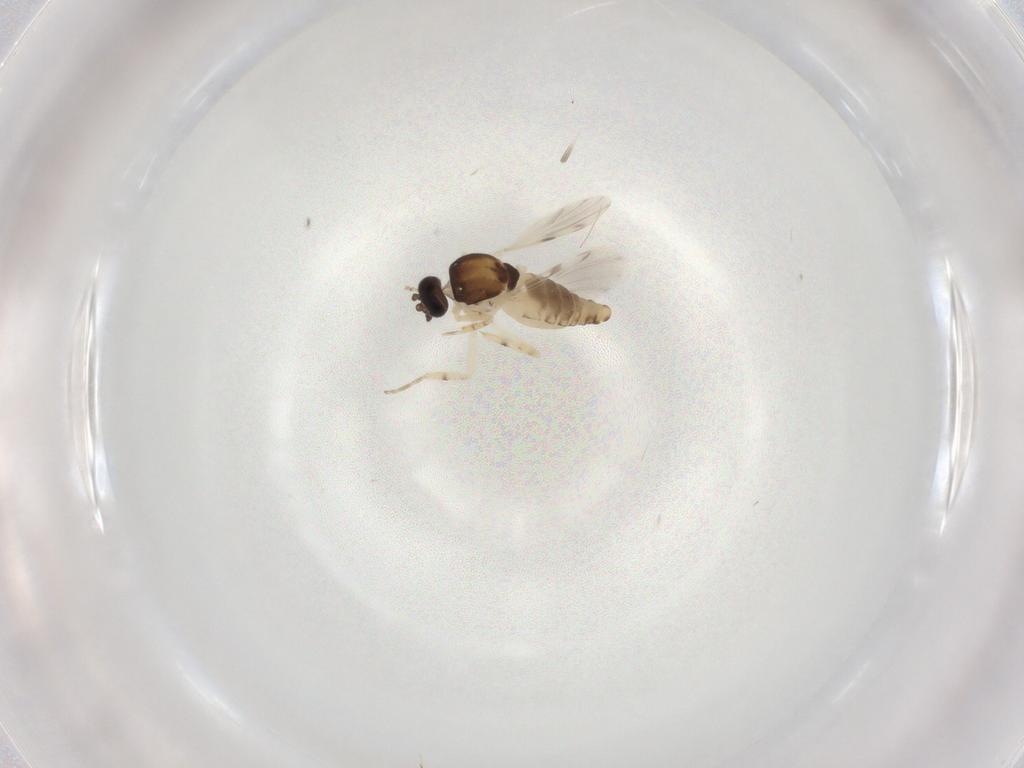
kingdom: Animalia
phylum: Arthropoda
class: Insecta
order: Diptera
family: Ceratopogonidae
